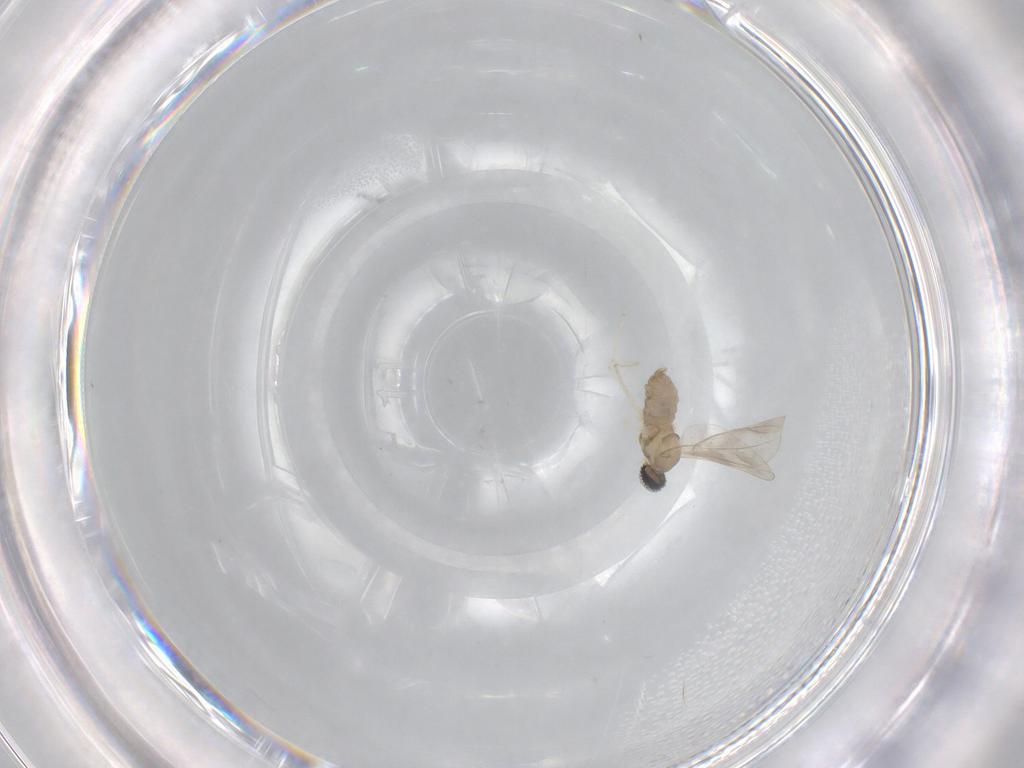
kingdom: Animalia
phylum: Arthropoda
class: Insecta
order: Diptera
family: Cecidomyiidae
